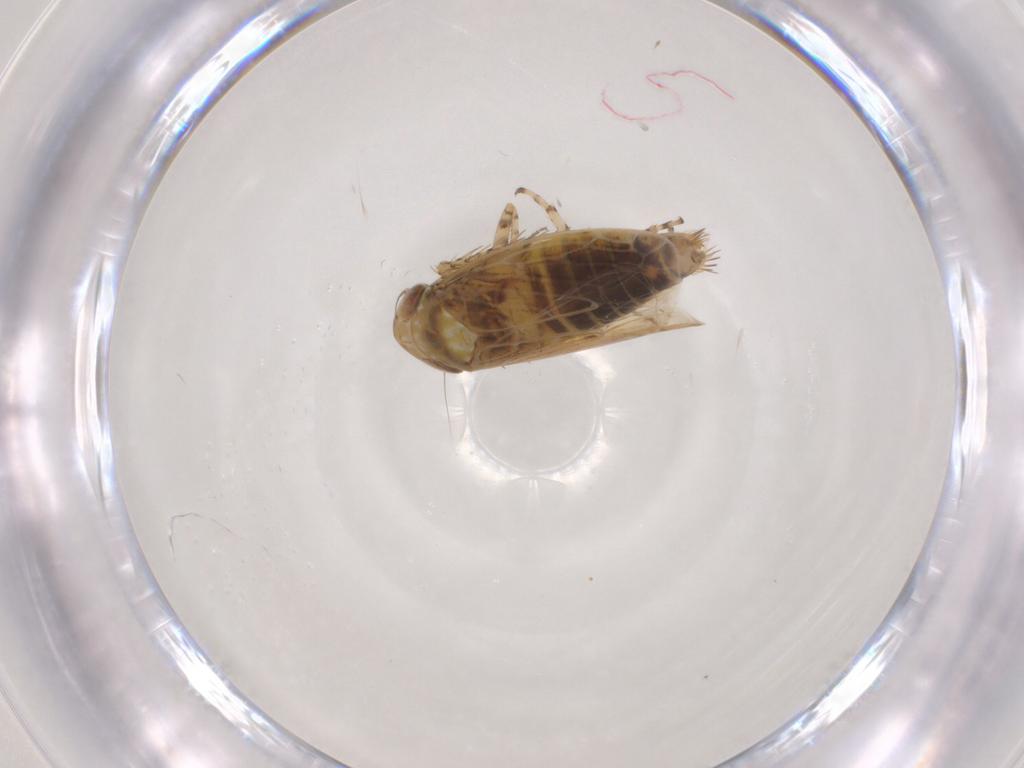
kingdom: Animalia
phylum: Arthropoda
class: Insecta
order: Hemiptera
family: Cicadellidae
